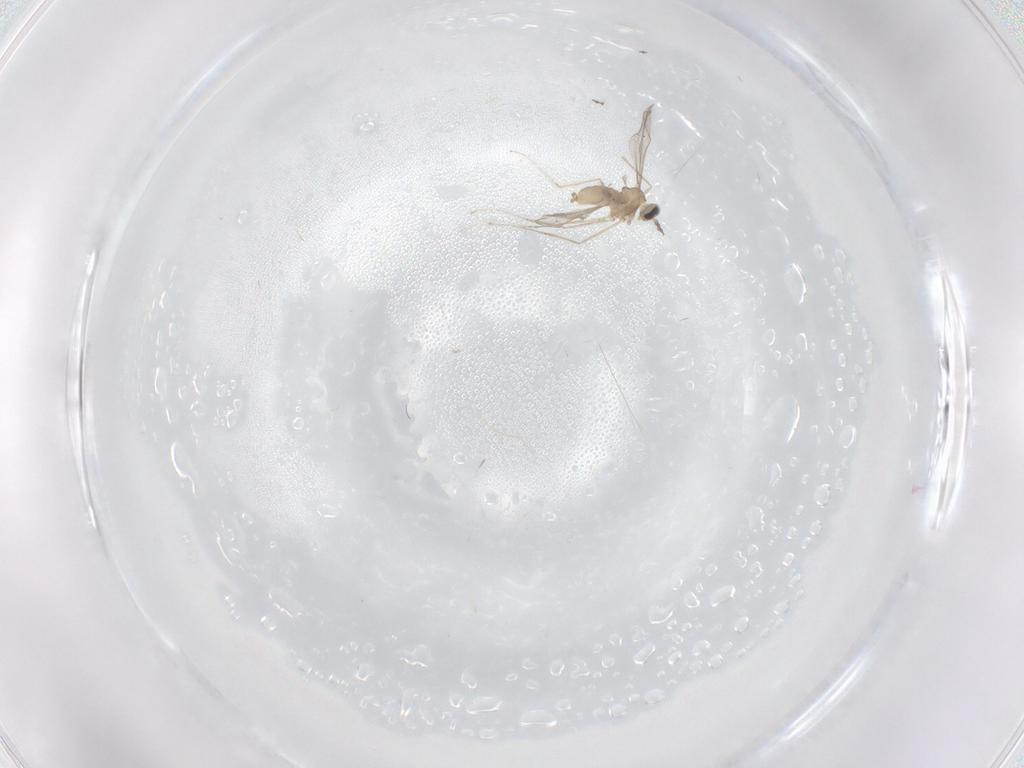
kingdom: Animalia
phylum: Arthropoda
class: Insecta
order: Diptera
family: Cecidomyiidae
